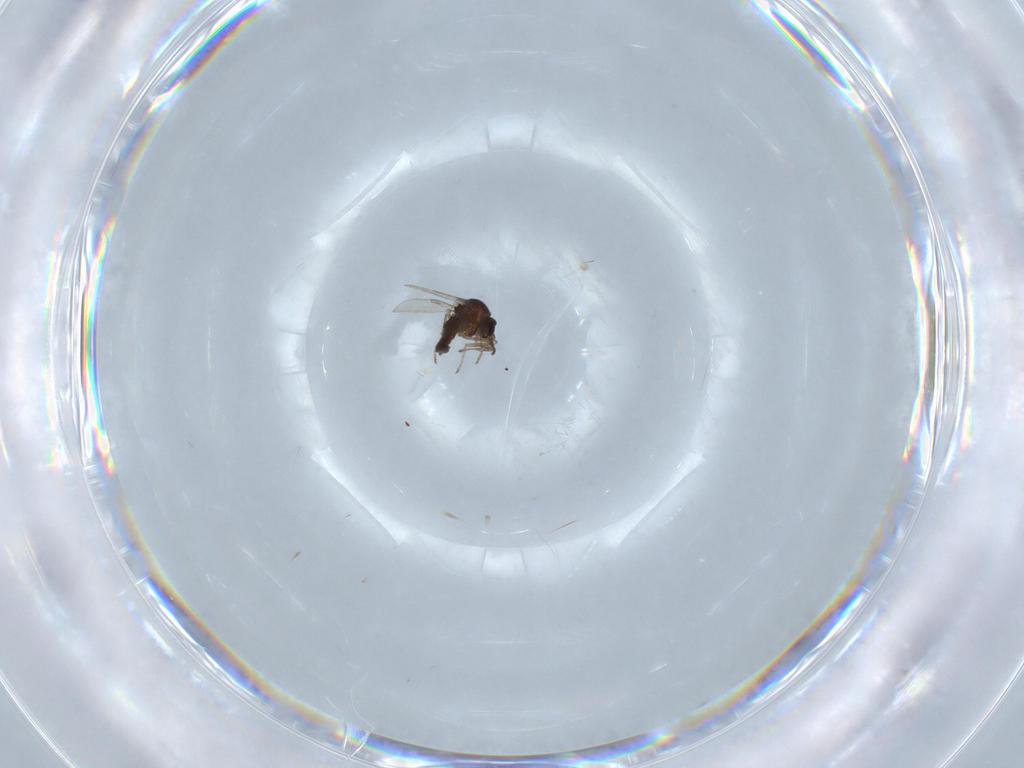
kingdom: Animalia
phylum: Arthropoda
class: Insecta
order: Diptera
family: Ceratopogonidae
